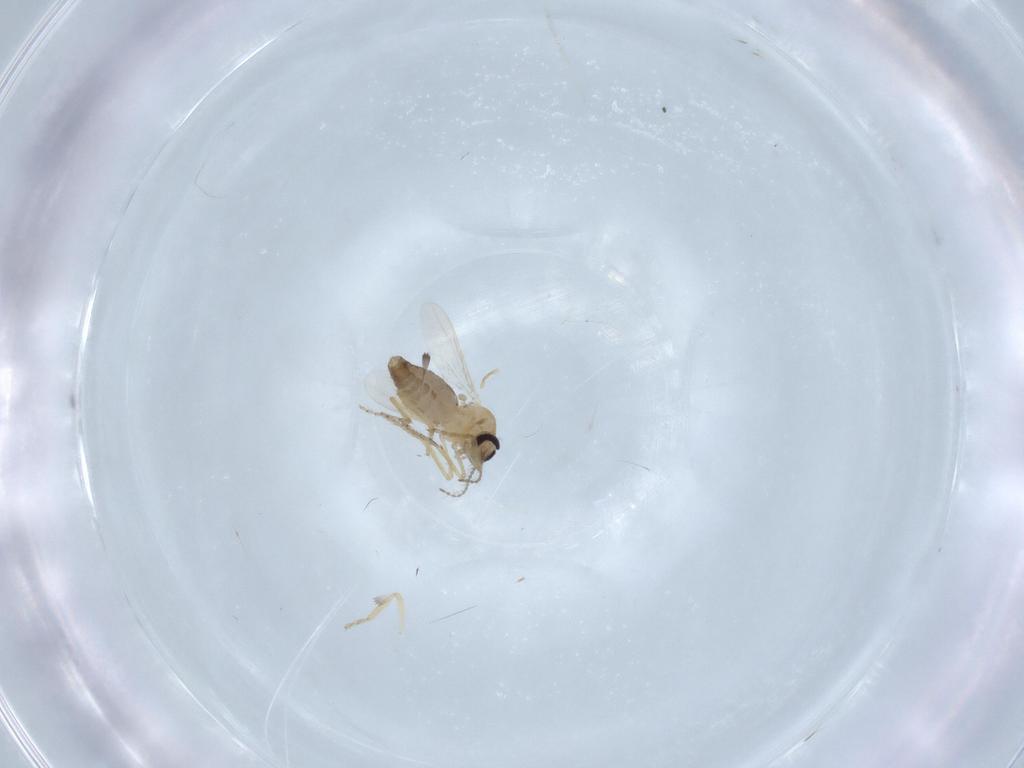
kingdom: Animalia
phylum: Arthropoda
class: Insecta
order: Diptera
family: Ceratopogonidae
